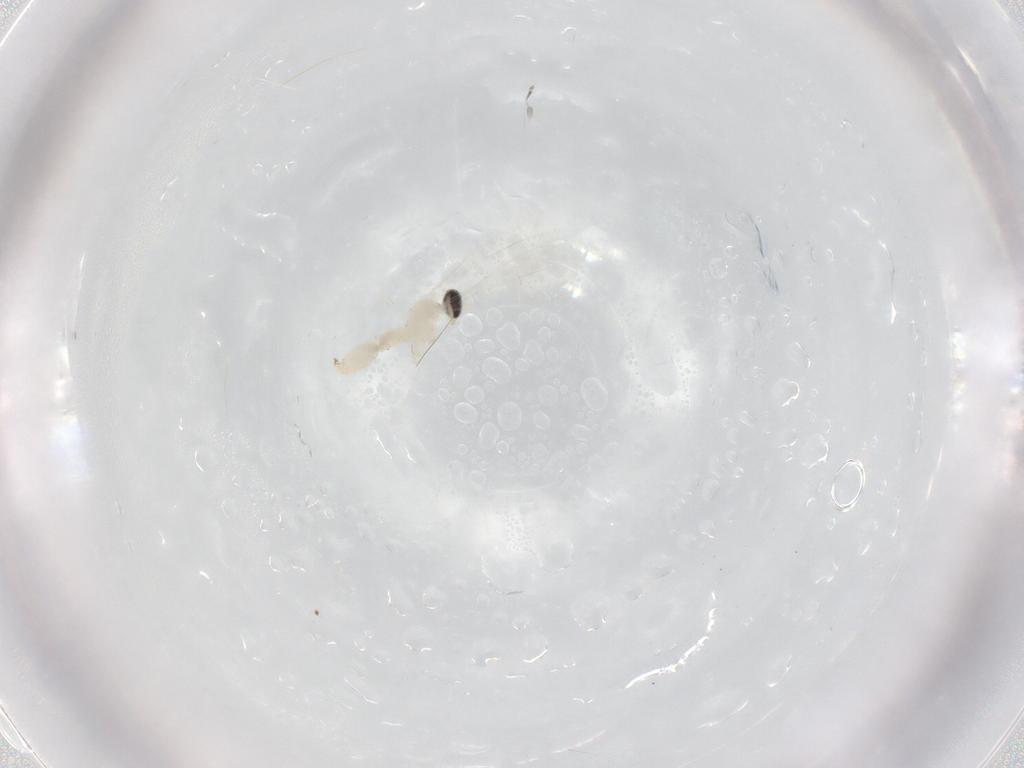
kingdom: Animalia
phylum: Arthropoda
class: Insecta
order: Diptera
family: Cecidomyiidae
